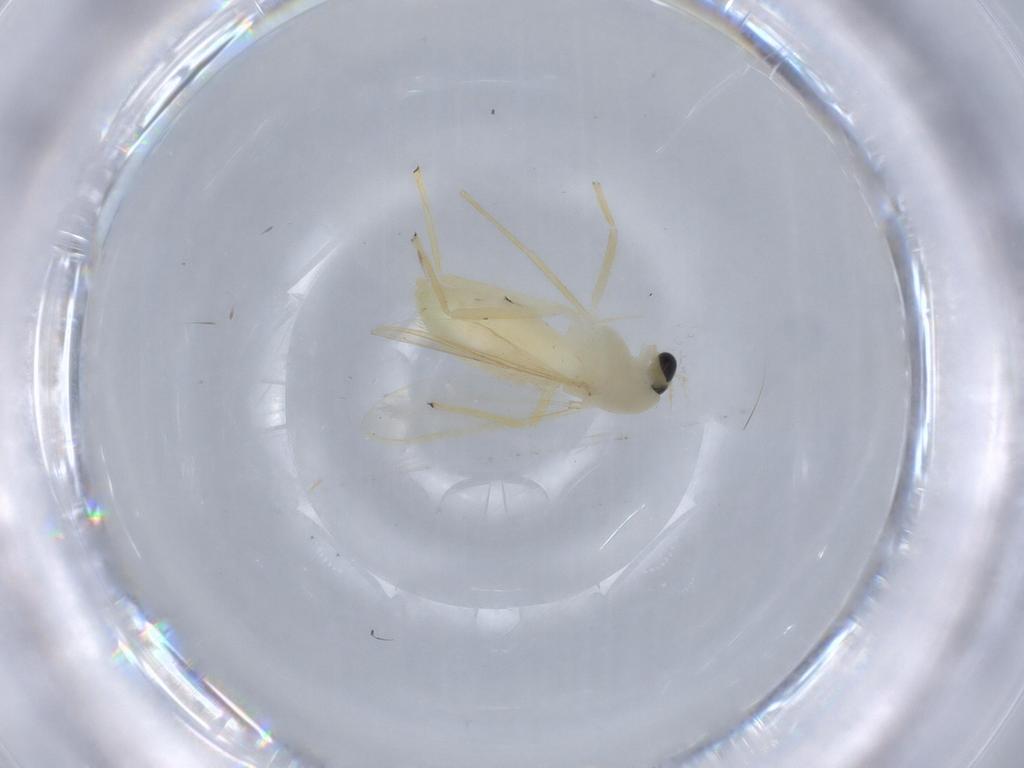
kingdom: Animalia
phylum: Arthropoda
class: Insecta
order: Diptera
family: Chironomidae
